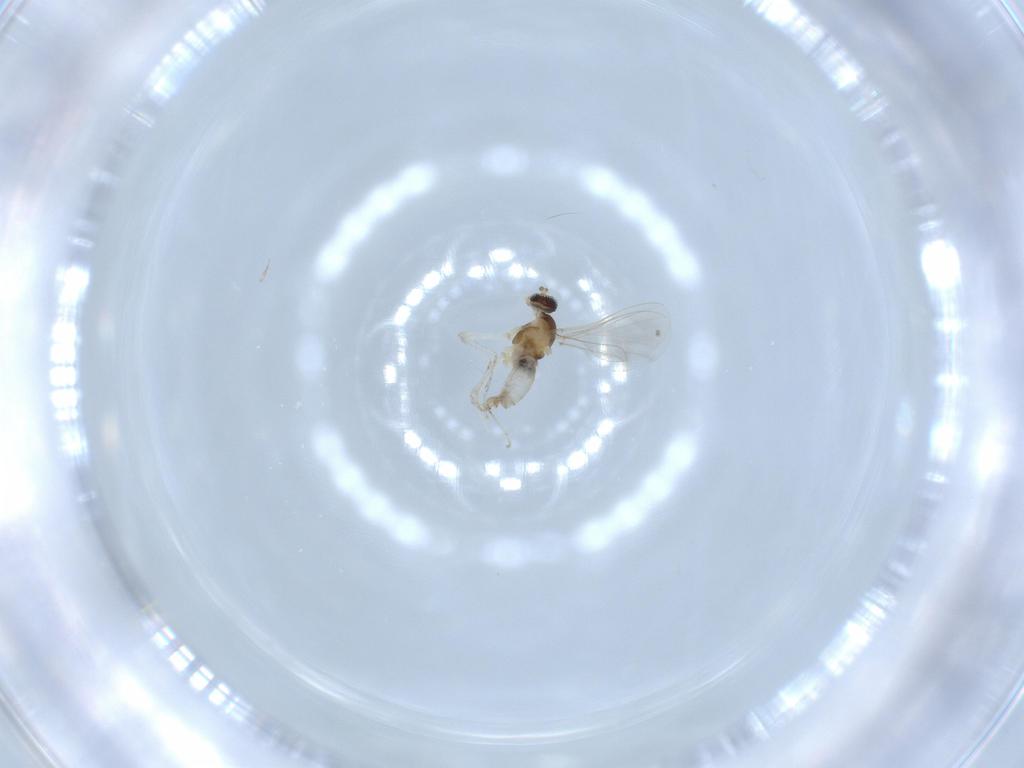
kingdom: Animalia
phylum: Arthropoda
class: Insecta
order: Diptera
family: Cecidomyiidae
